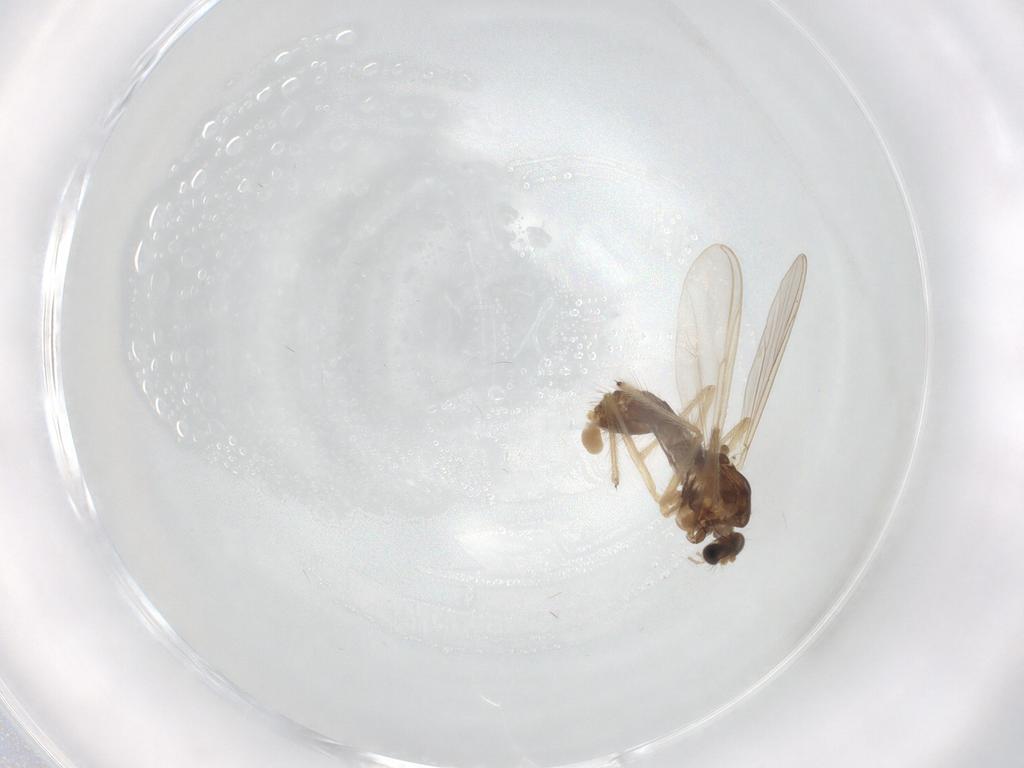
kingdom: Animalia
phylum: Arthropoda
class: Insecta
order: Diptera
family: Chironomidae
